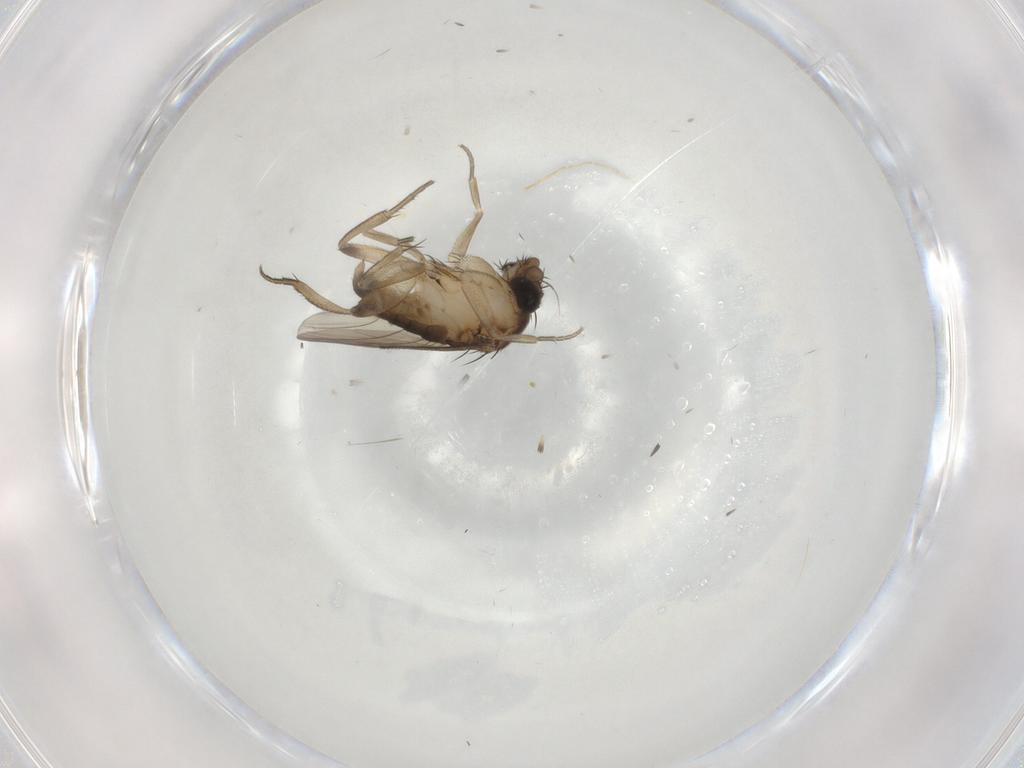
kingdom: Animalia
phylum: Arthropoda
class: Insecta
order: Diptera
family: Phoridae
